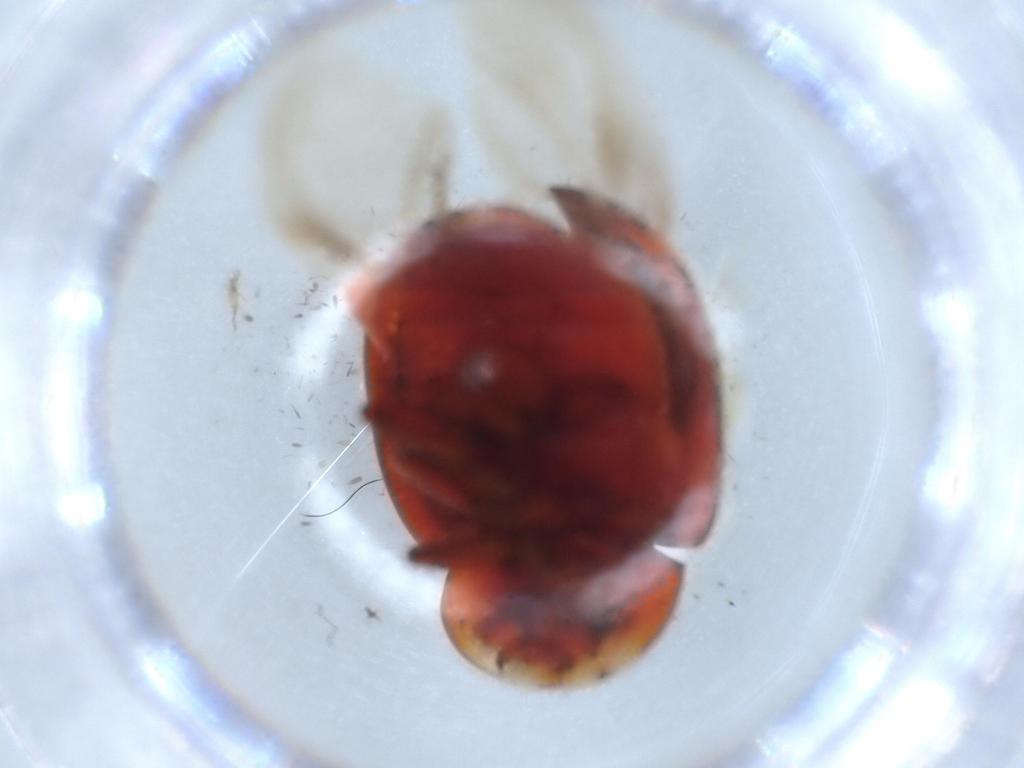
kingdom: Animalia
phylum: Arthropoda
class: Insecta
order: Coleoptera
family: Coccinellidae
